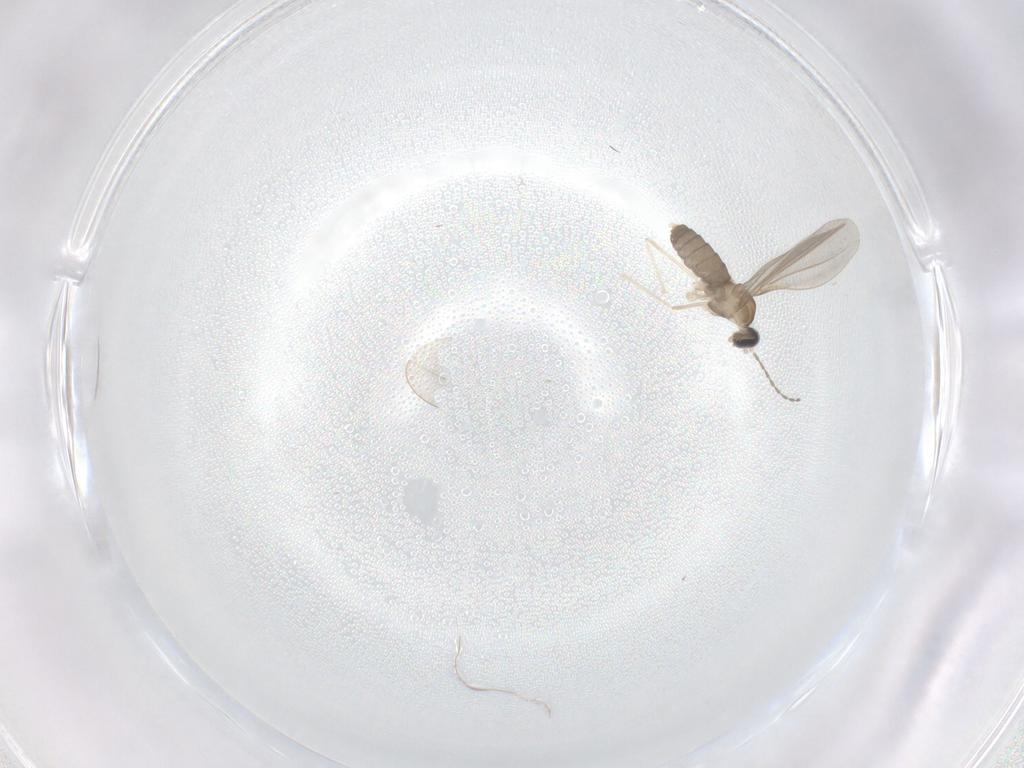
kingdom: Animalia
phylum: Arthropoda
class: Insecta
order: Diptera
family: Cecidomyiidae
